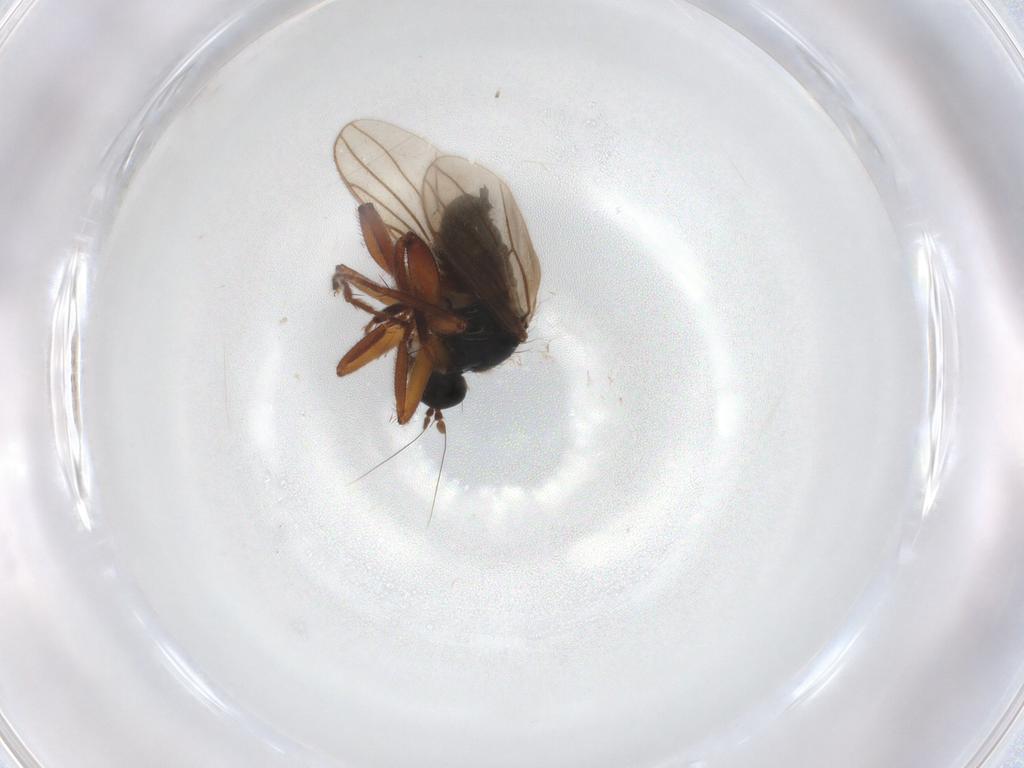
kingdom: Animalia
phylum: Arthropoda
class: Insecta
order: Diptera
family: Hybotidae
